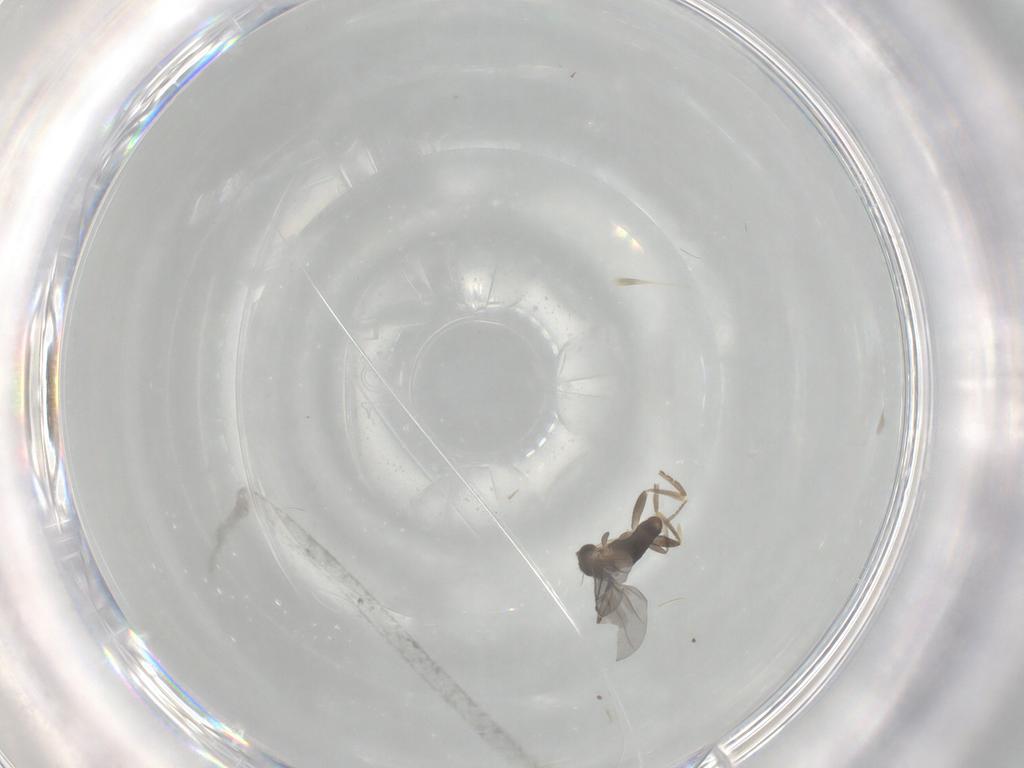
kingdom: Animalia
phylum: Arthropoda
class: Insecta
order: Diptera
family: Cecidomyiidae
